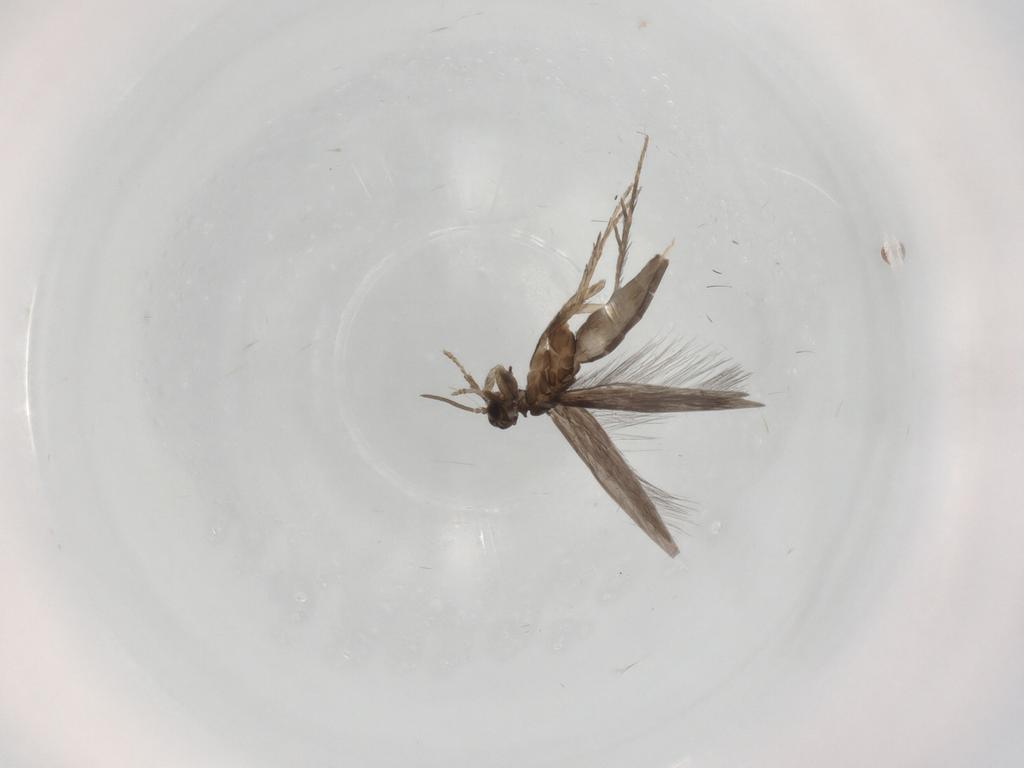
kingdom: Animalia
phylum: Arthropoda
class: Insecta
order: Trichoptera
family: Hydroptilidae
